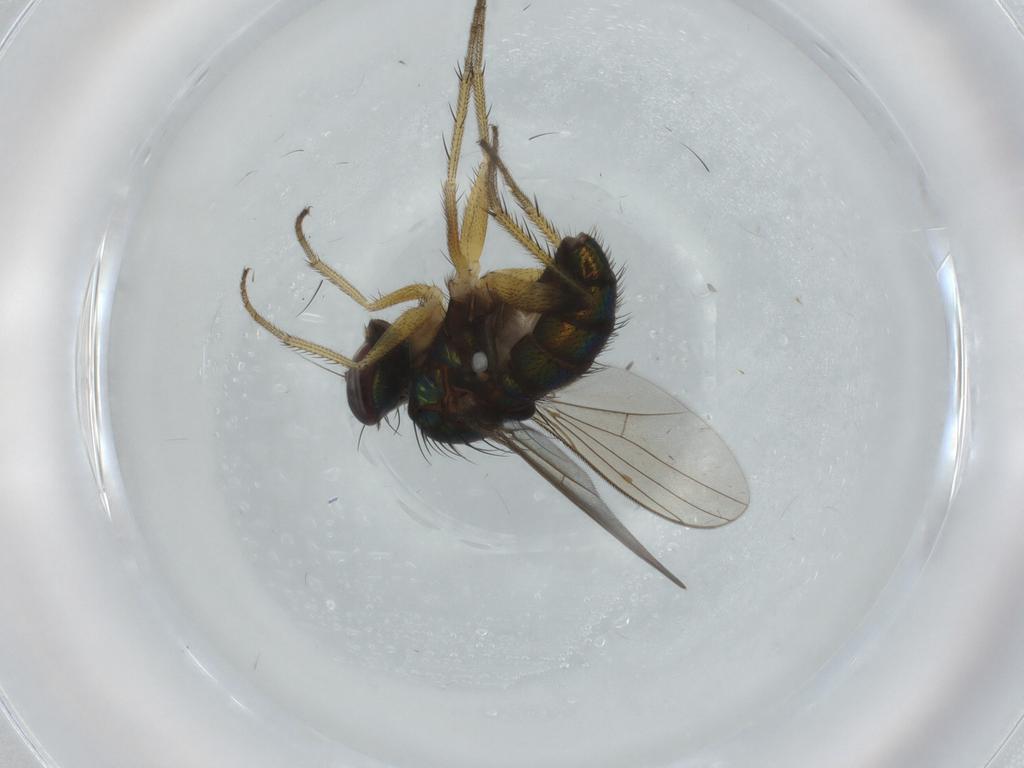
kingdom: Animalia
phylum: Arthropoda
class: Insecta
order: Diptera
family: Dolichopodidae
